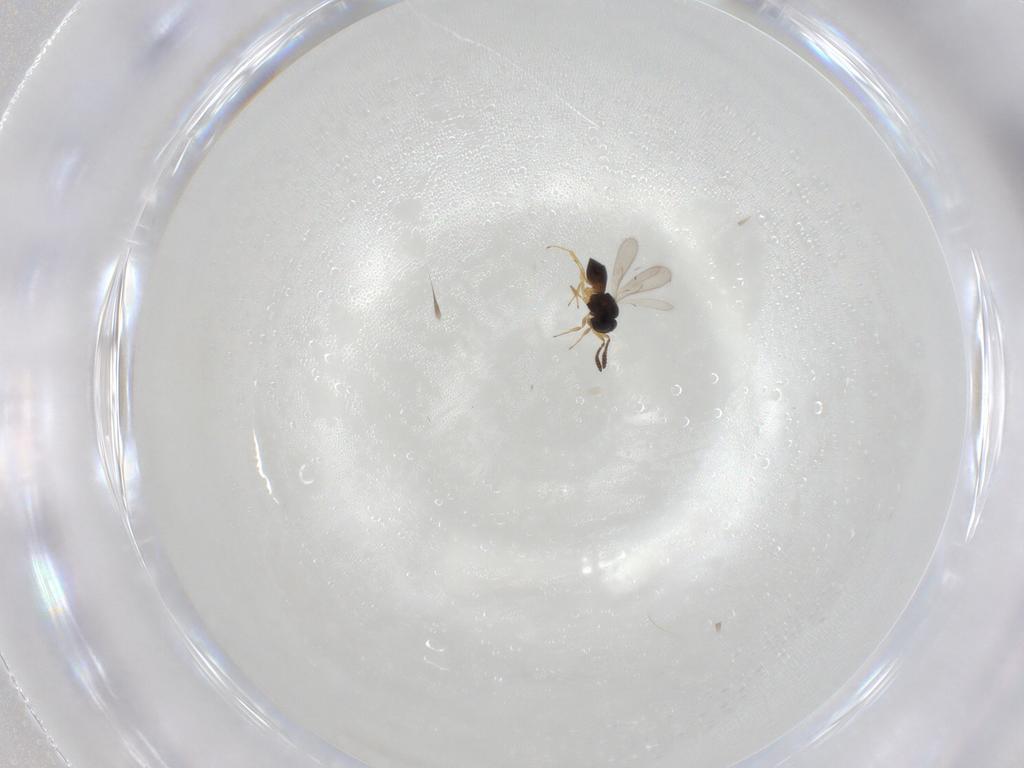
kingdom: Animalia
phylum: Arthropoda
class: Insecta
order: Hymenoptera
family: Scelionidae
